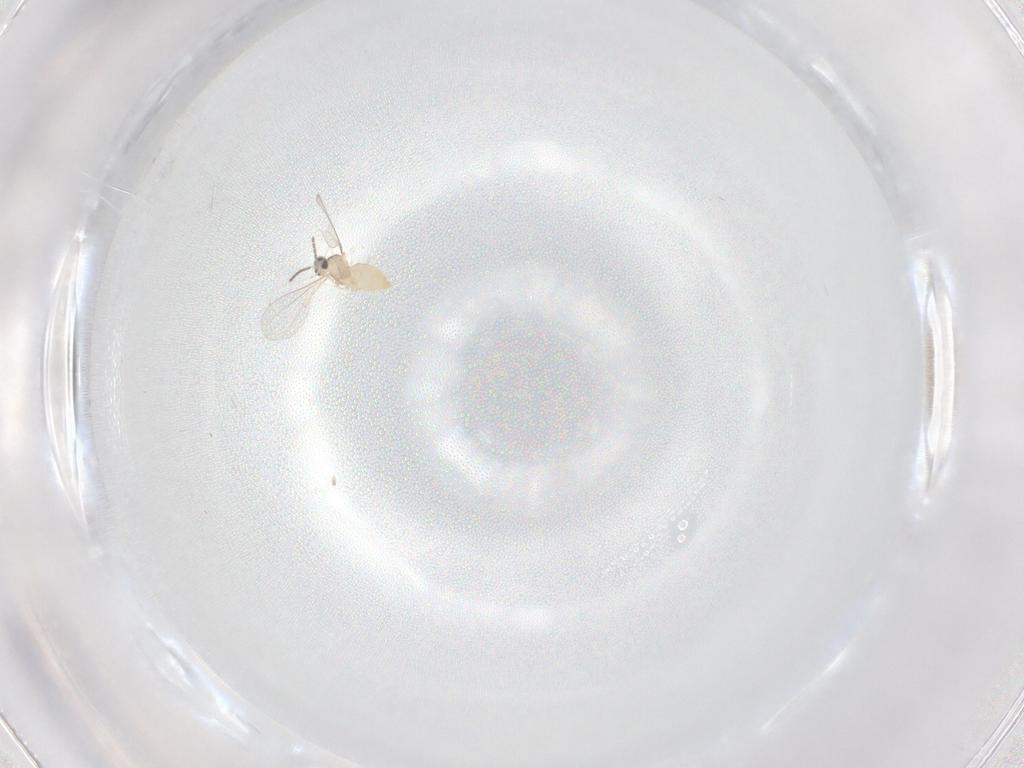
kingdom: Animalia
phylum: Arthropoda
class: Insecta
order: Diptera
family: Cecidomyiidae
